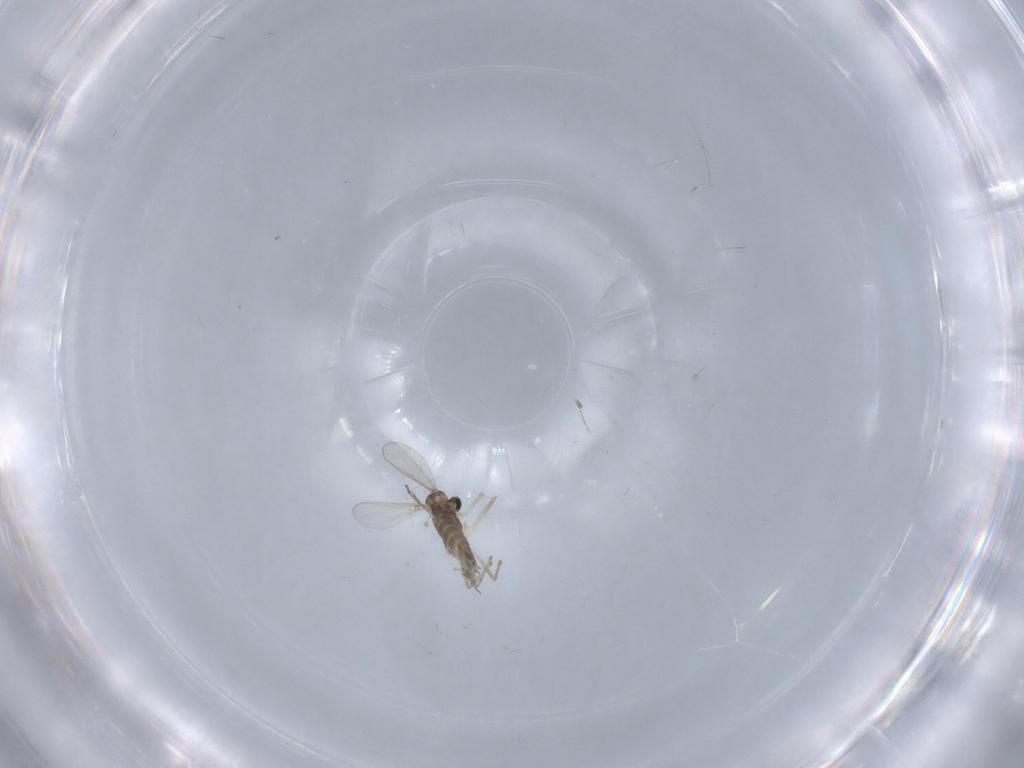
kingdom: Animalia
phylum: Arthropoda
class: Insecta
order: Diptera
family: Chironomidae
